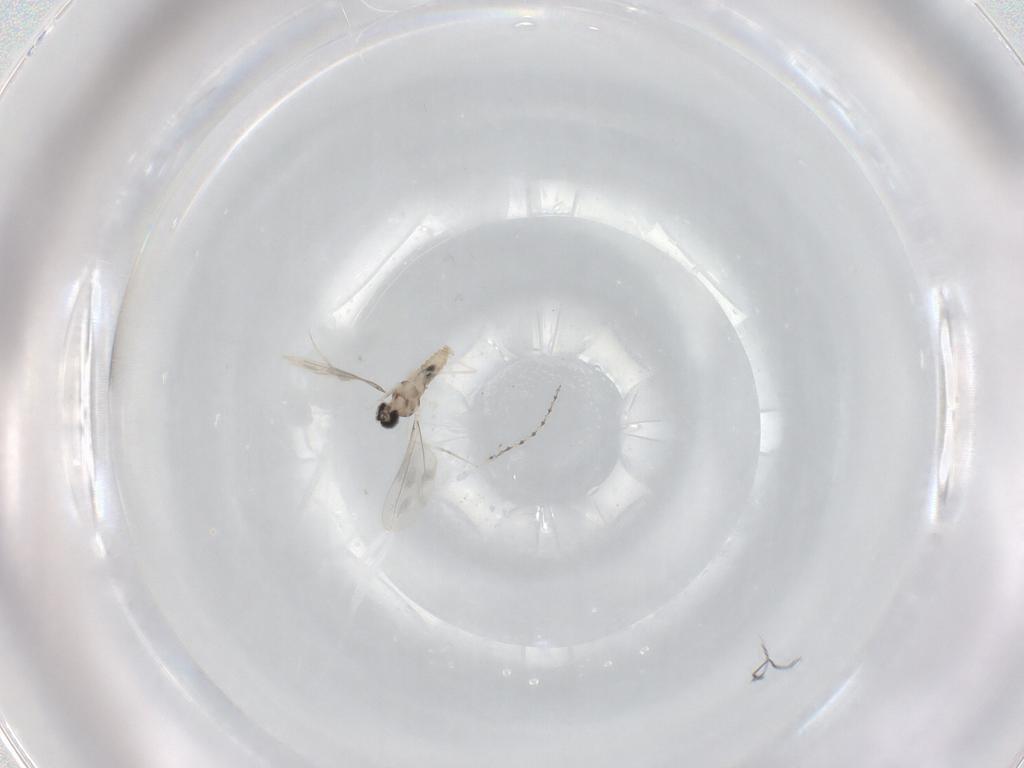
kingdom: Animalia
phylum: Arthropoda
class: Insecta
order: Diptera
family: Cecidomyiidae
